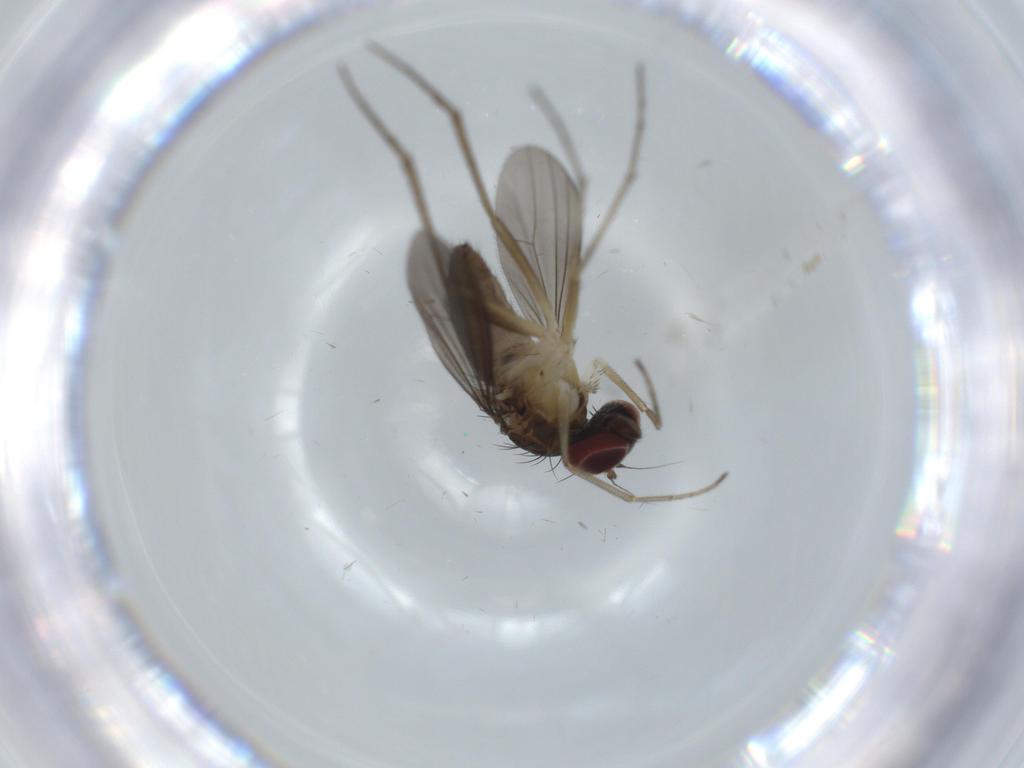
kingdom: Animalia
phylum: Arthropoda
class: Insecta
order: Diptera
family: Dolichopodidae
